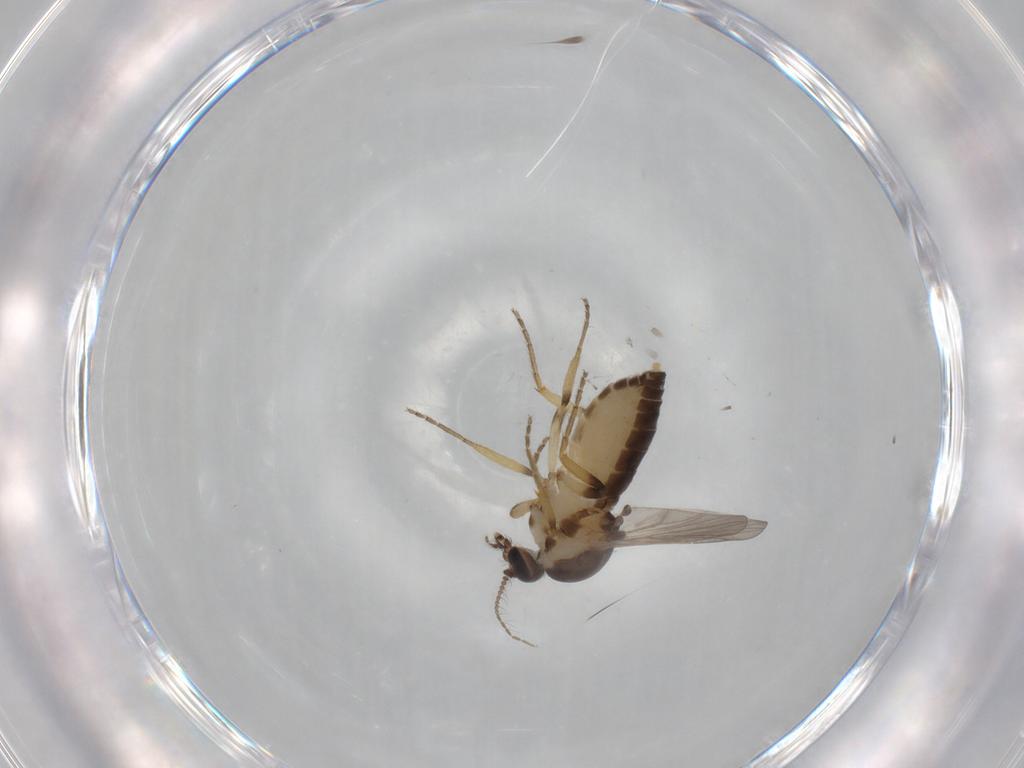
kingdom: Animalia
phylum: Arthropoda
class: Insecta
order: Diptera
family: Ceratopogonidae
